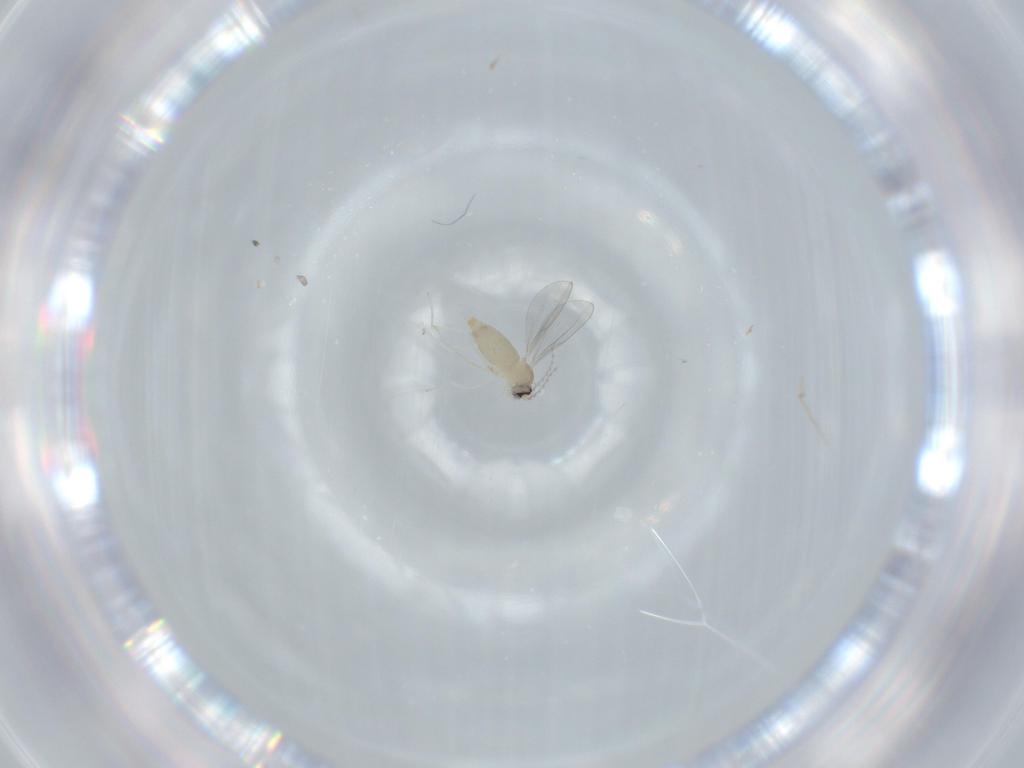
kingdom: Animalia
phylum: Arthropoda
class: Insecta
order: Diptera
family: Cecidomyiidae
